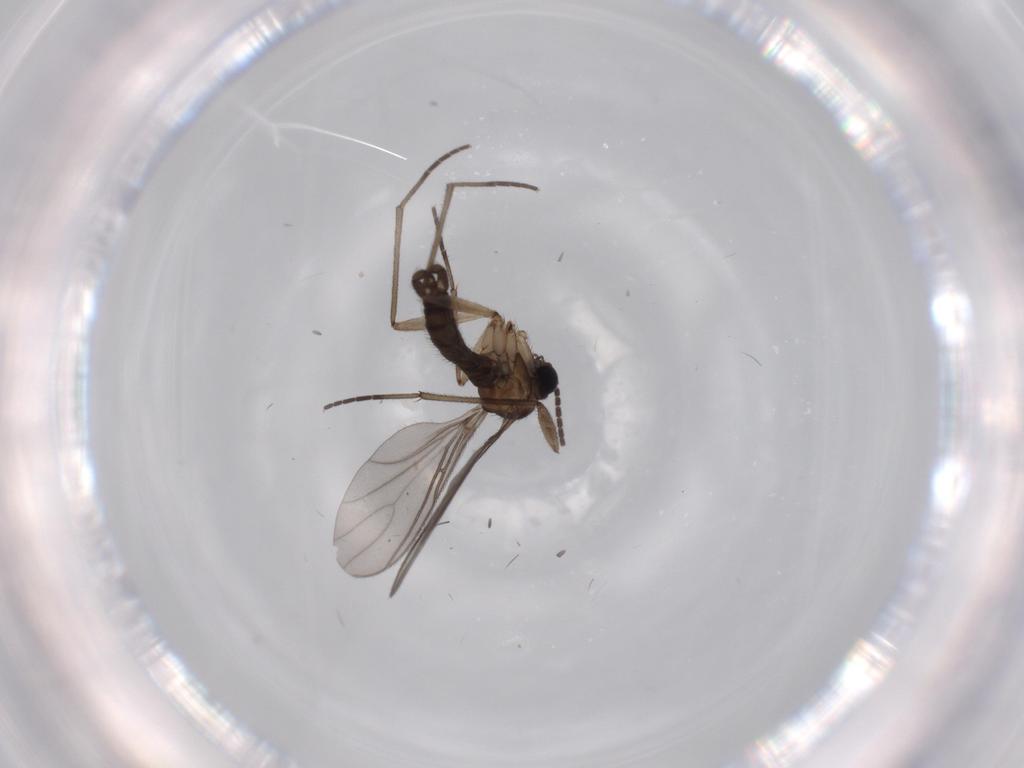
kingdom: Animalia
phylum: Arthropoda
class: Insecta
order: Diptera
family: Sciaridae
